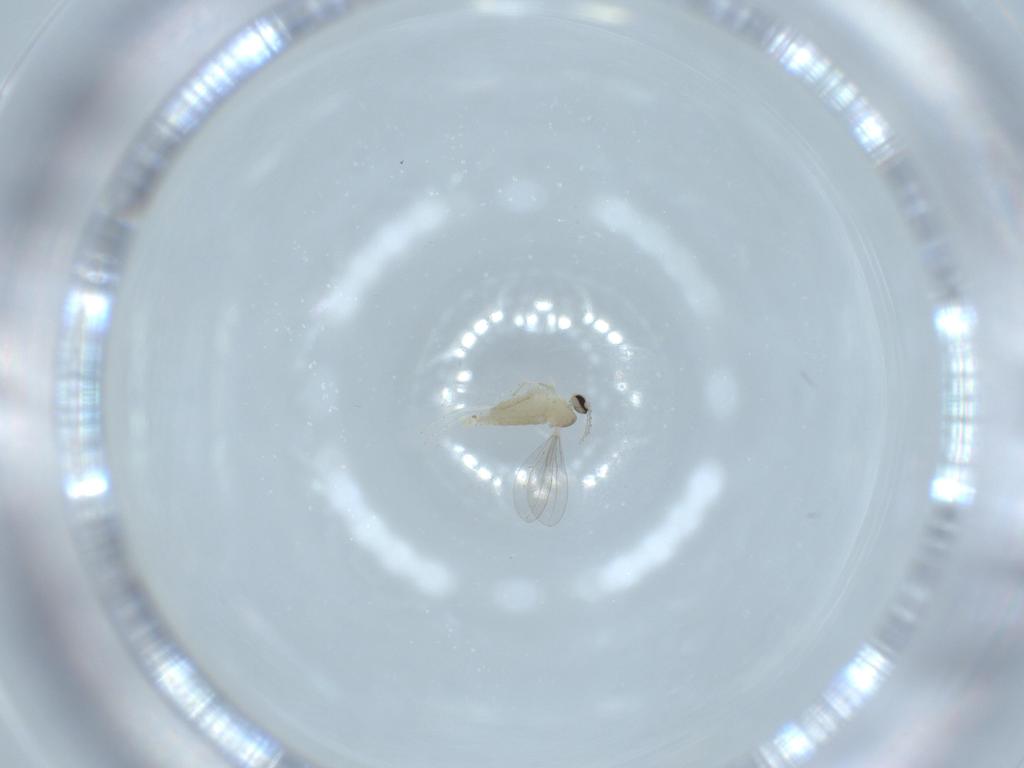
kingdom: Animalia
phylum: Arthropoda
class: Insecta
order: Diptera
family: Cecidomyiidae
